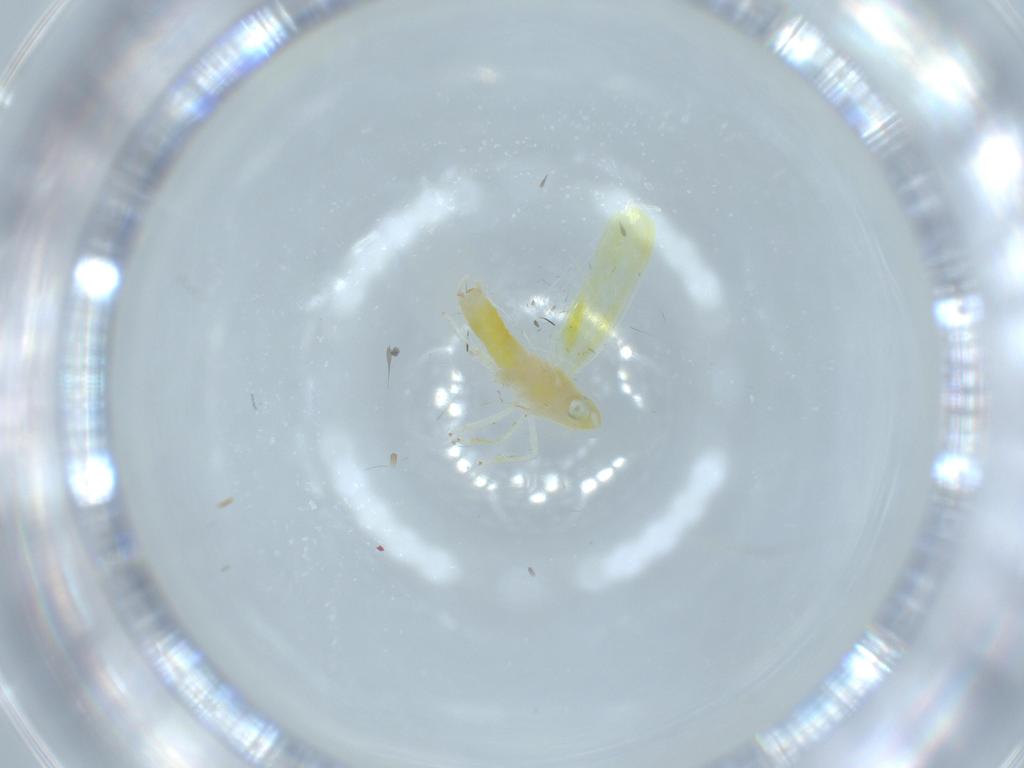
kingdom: Animalia
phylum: Arthropoda
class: Insecta
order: Hemiptera
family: Cicadellidae
